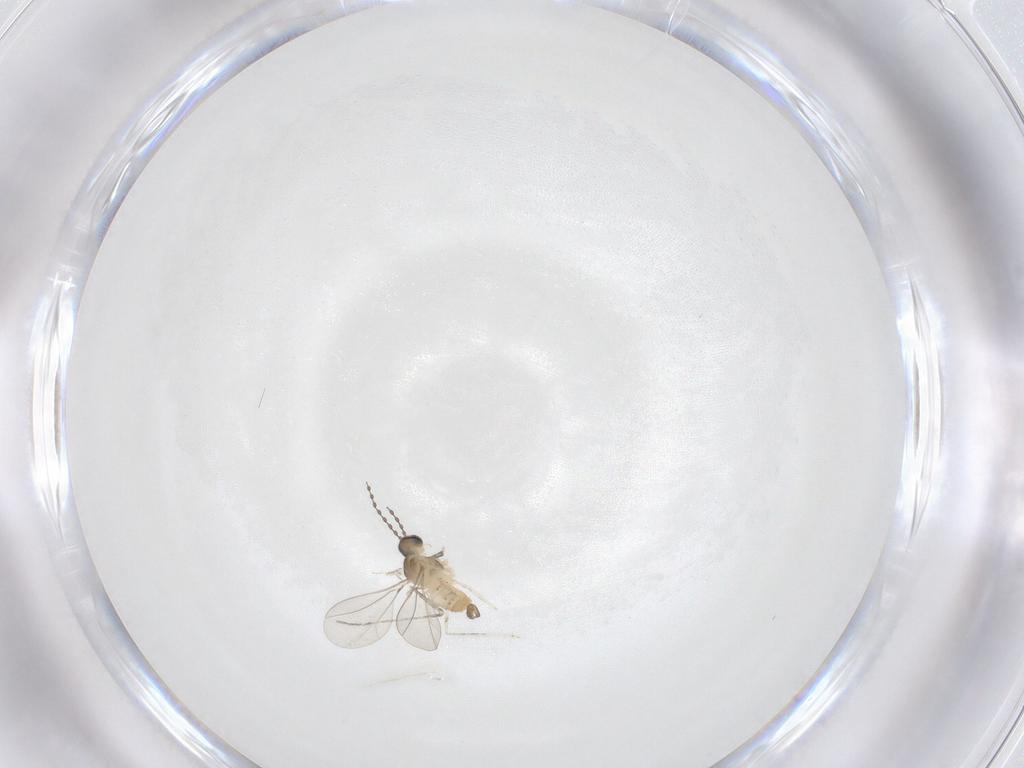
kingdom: Animalia
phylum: Arthropoda
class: Insecta
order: Diptera
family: Cecidomyiidae
